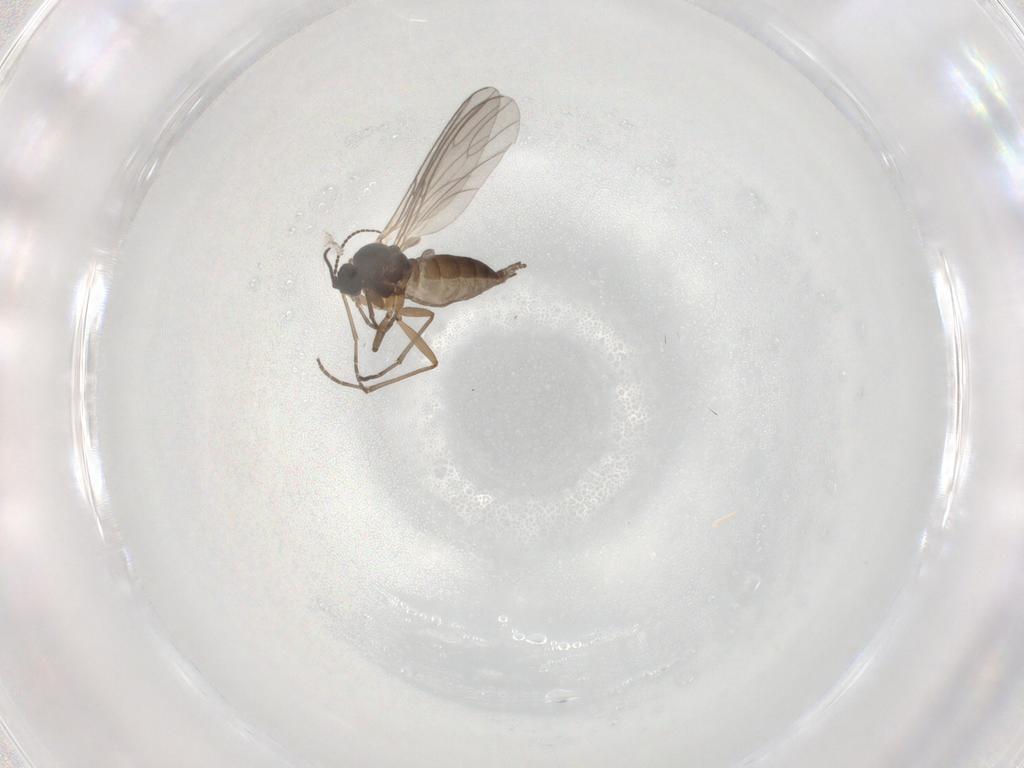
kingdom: Animalia
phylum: Arthropoda
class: Insecta
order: Diptera
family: Sciaridae
